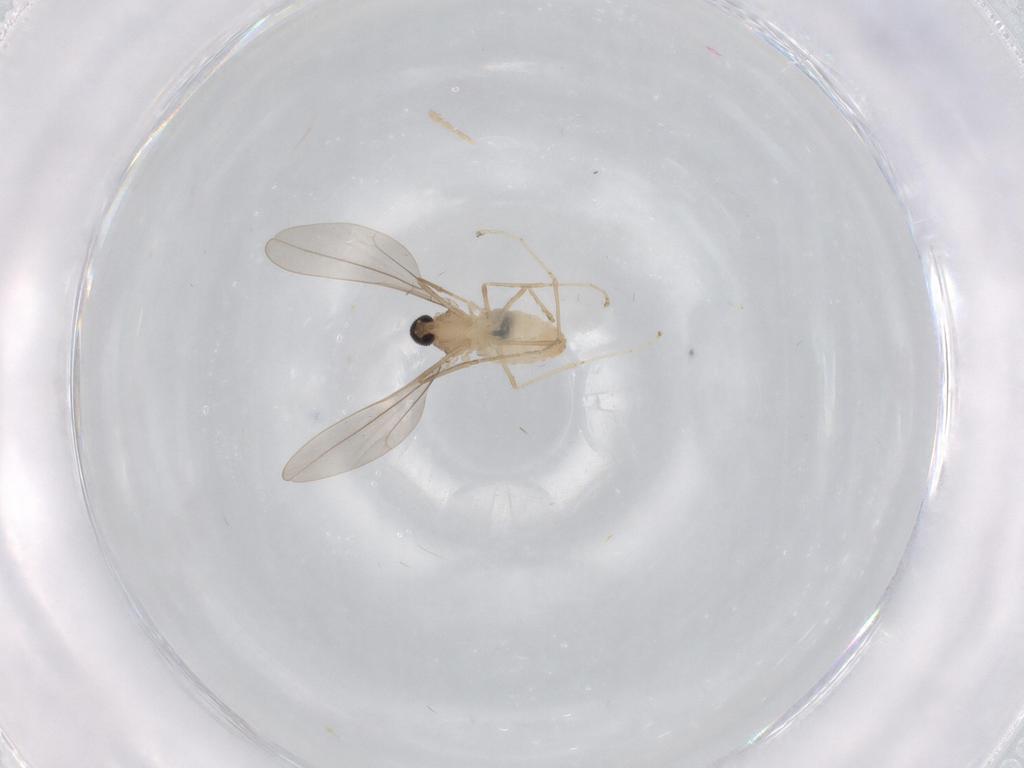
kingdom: Animalia
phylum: Arthropoda
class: Insecta
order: Diptera
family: Cecidomyiidae
